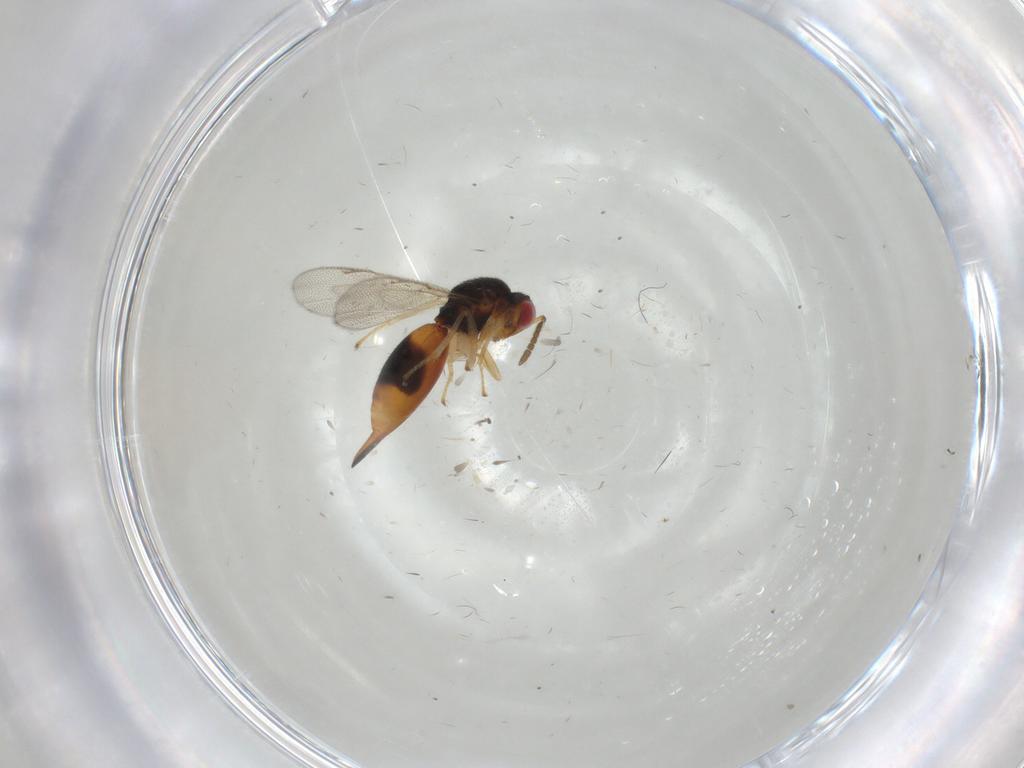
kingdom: Animalia
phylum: Arthropoda
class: Insecta
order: Hymenoptera
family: Eurytomidae
